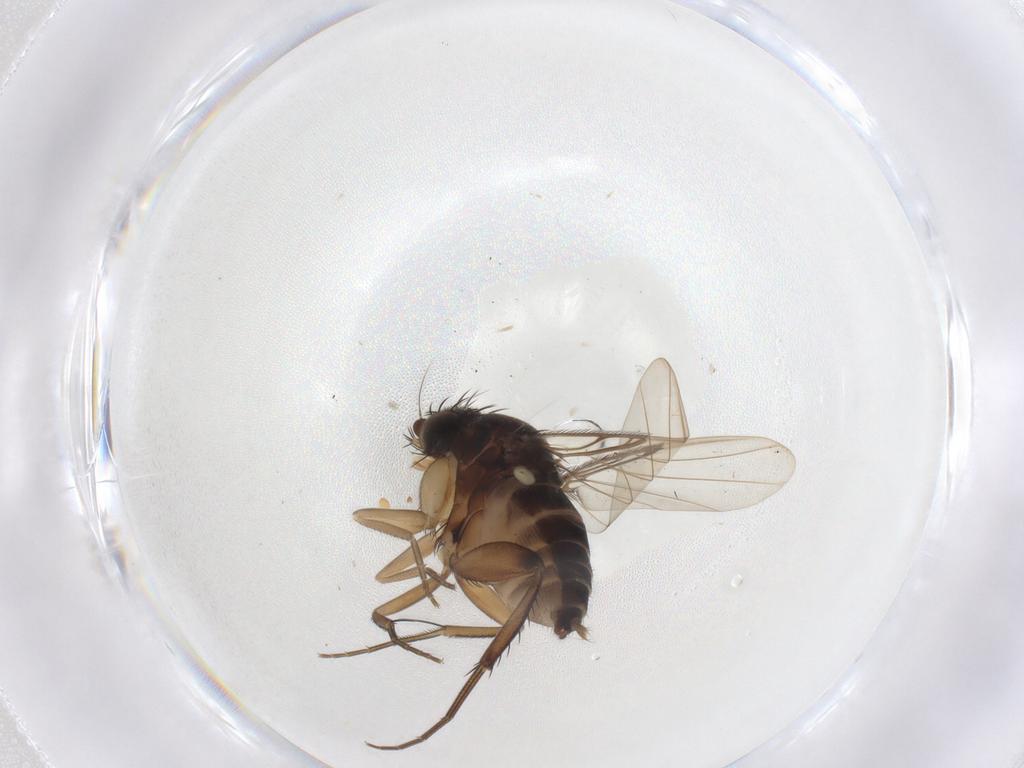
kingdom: Animalia
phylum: Arthropoda
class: Insecta
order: Diptera
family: Phoridae
